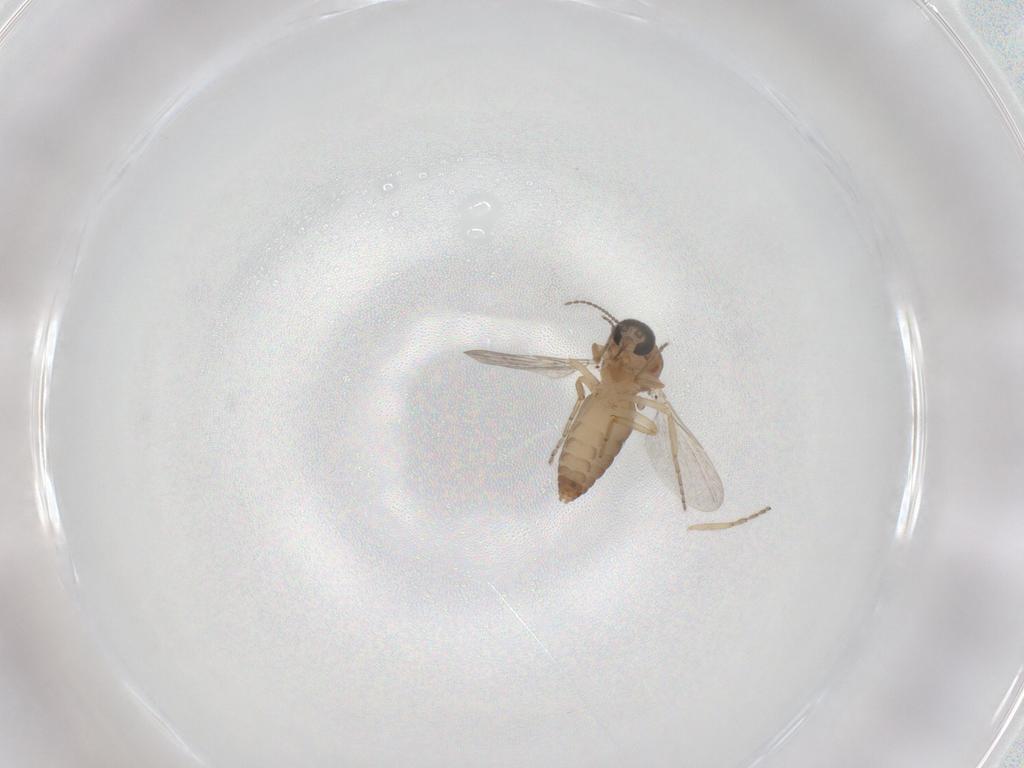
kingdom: Animalia
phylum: Arthropoda
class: Insecta
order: Diptera
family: Ceratopogonidae
